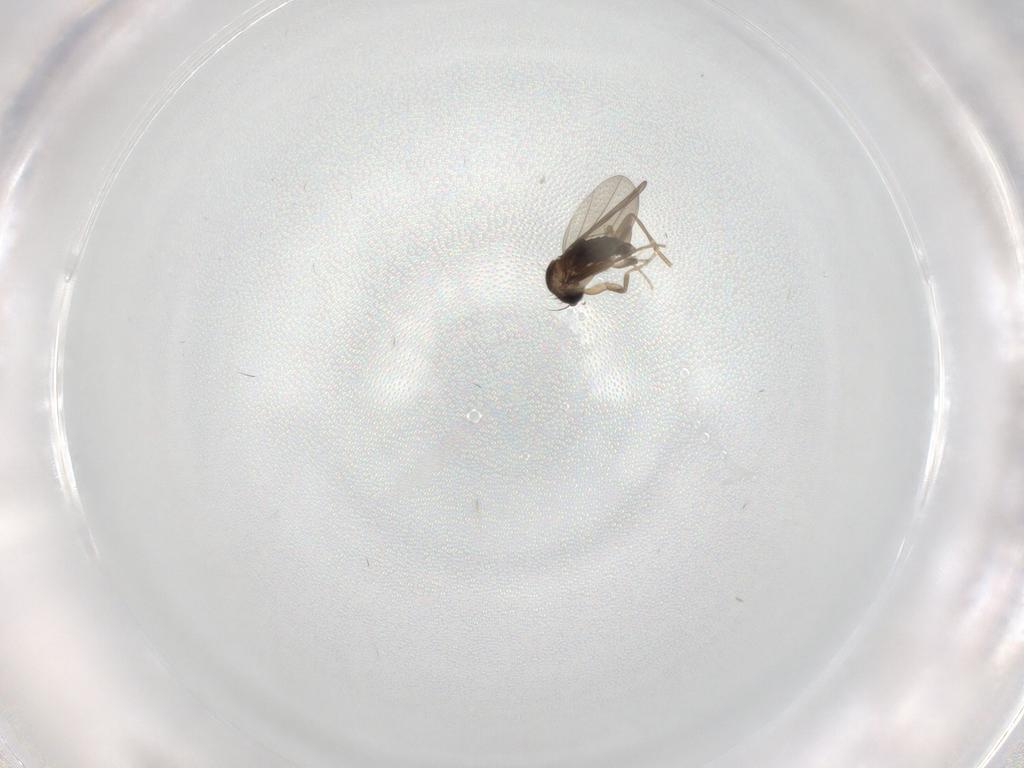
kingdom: Animalia
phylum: Arthropoda
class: Insecta
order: Diptera
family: Phoridae
